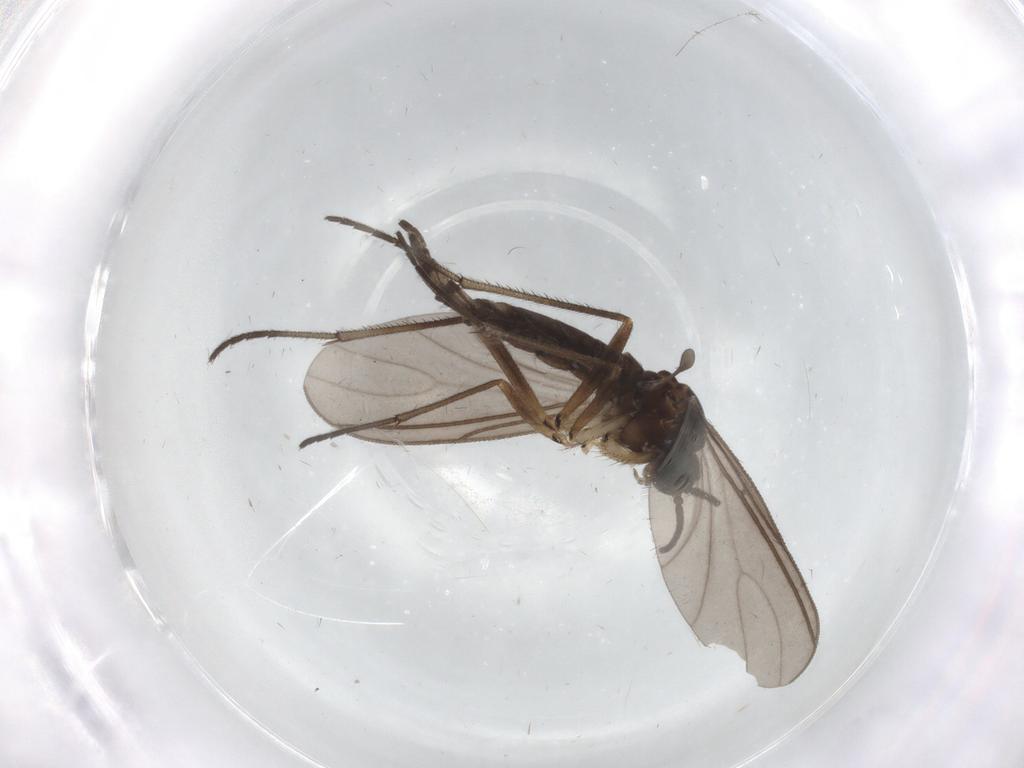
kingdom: Animalia
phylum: Arthropoda
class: Insecta
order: Diptera
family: Sciaridae
